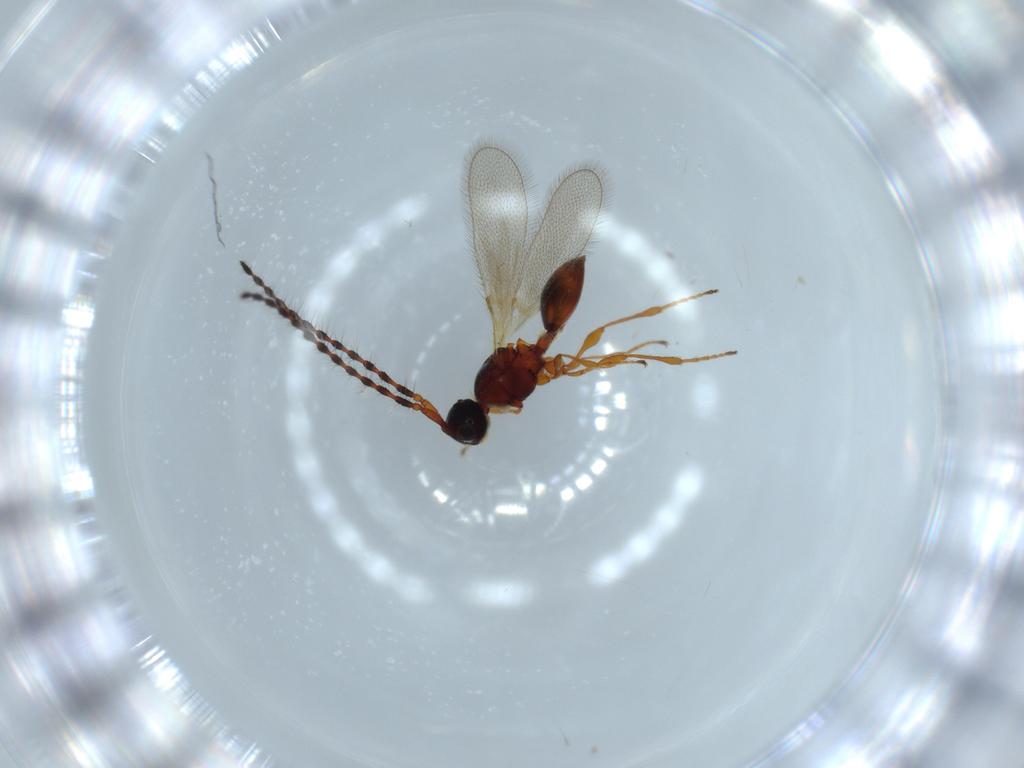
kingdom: Animalia
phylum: Arthropoda
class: Insecta
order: Hymenoptera
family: Diapriidae
